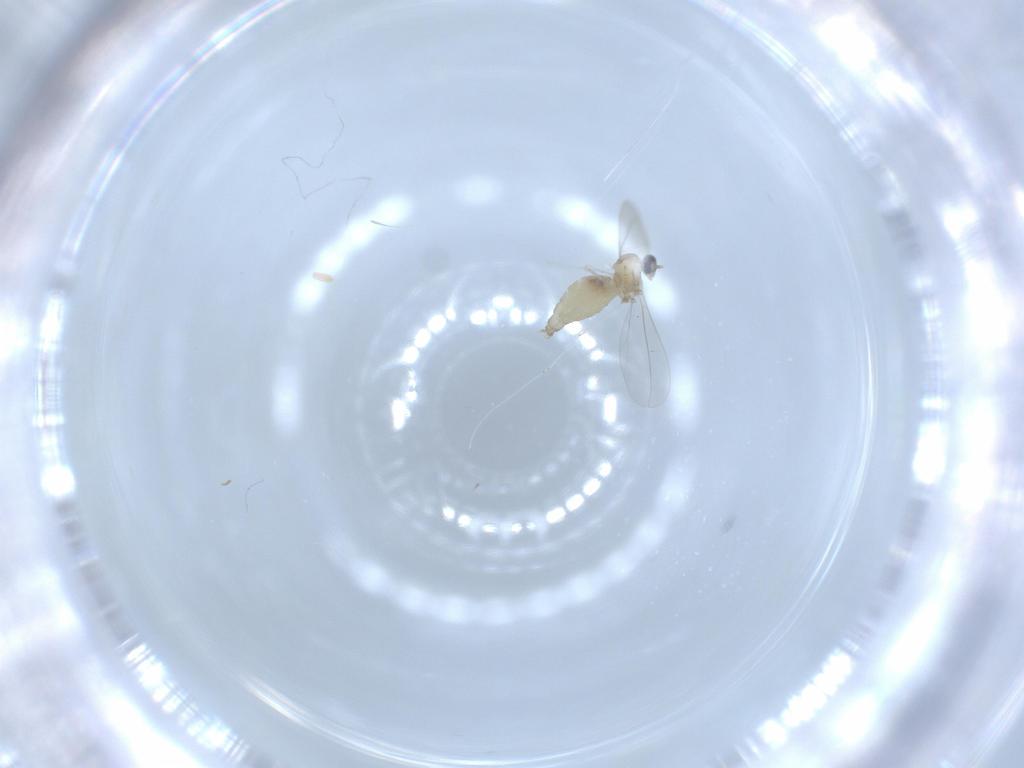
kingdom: Animalia
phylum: Arthropoda
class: Insecta
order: Diptera
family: Cecidomyiidae
